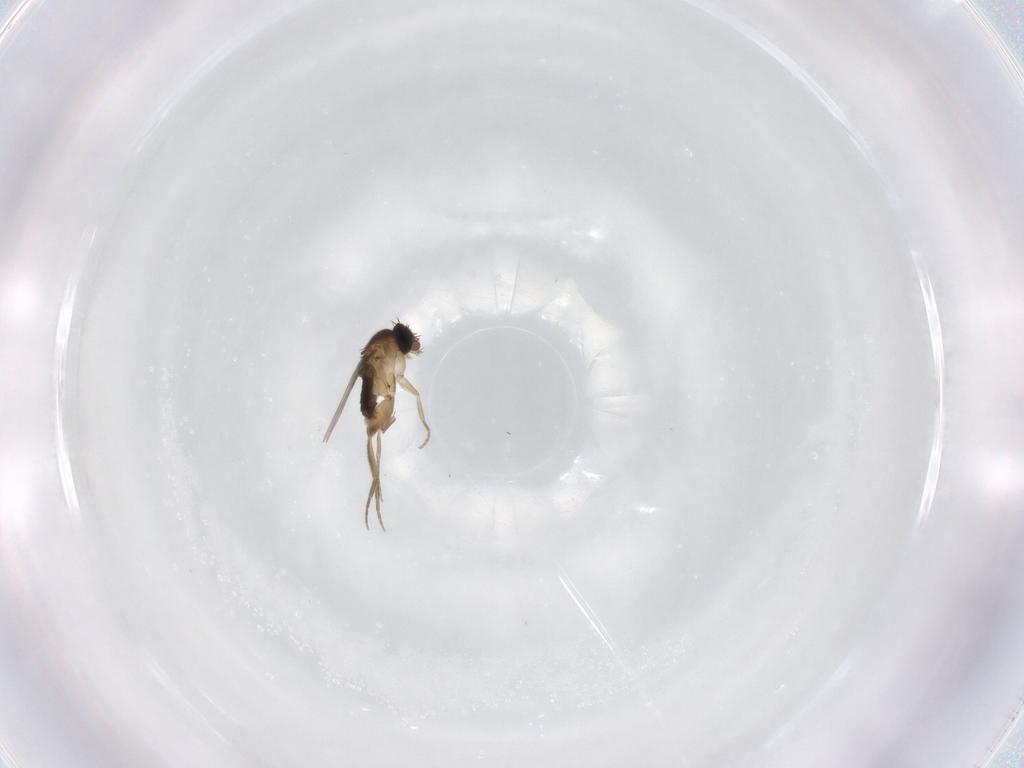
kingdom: Animalia
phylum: Arthropoda
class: Insecta
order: Diptera
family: Phoridae
